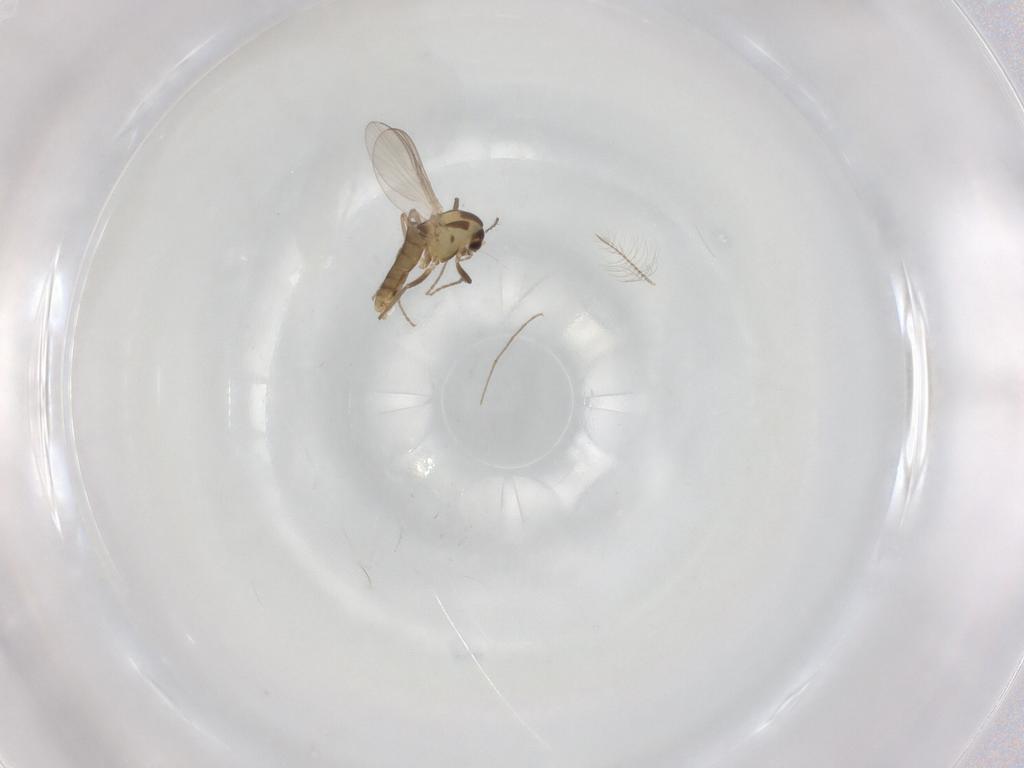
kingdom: Animalia
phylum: Arthropoda
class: Insecta
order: Diptera
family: Chironomidae
